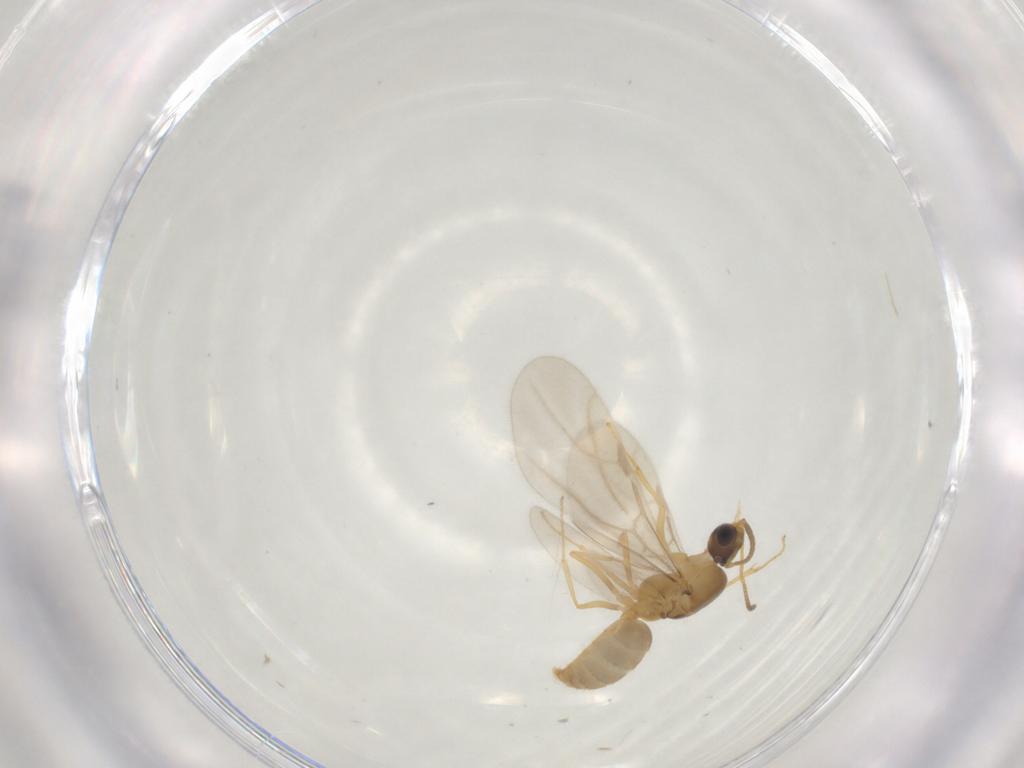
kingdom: Animalia
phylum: Arthropoda
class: Insecta
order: Hymenoptera
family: Formicidae
